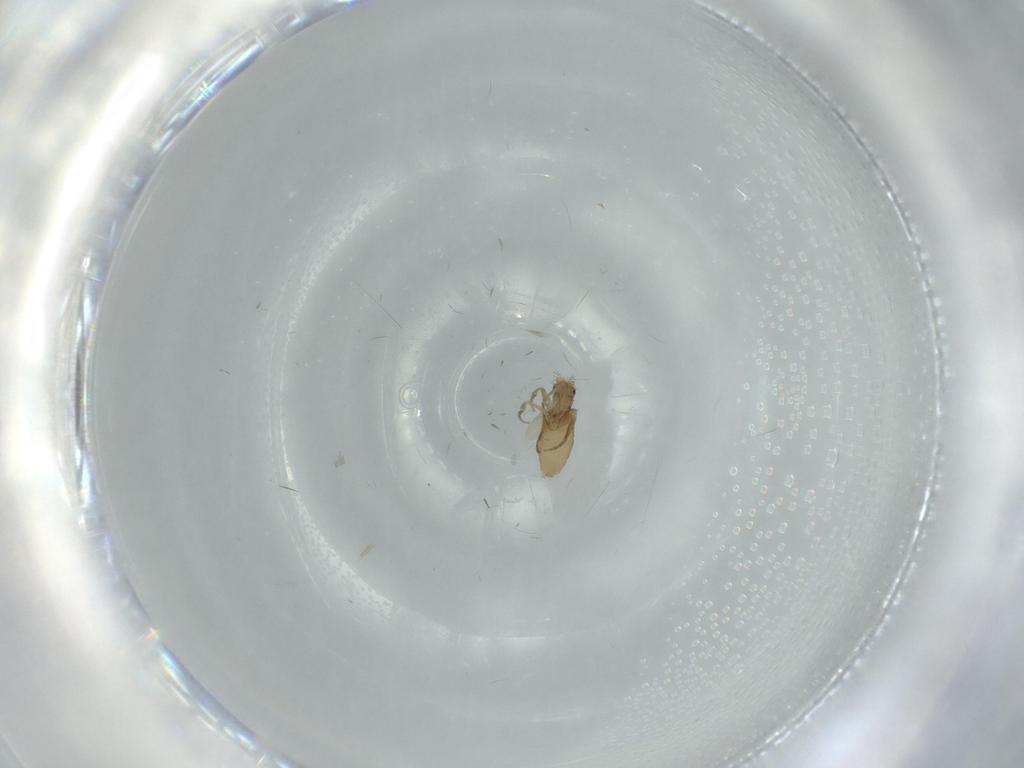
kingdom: Animalia
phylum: Arthropoda
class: Insecta
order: Diptera
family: Phoridae
